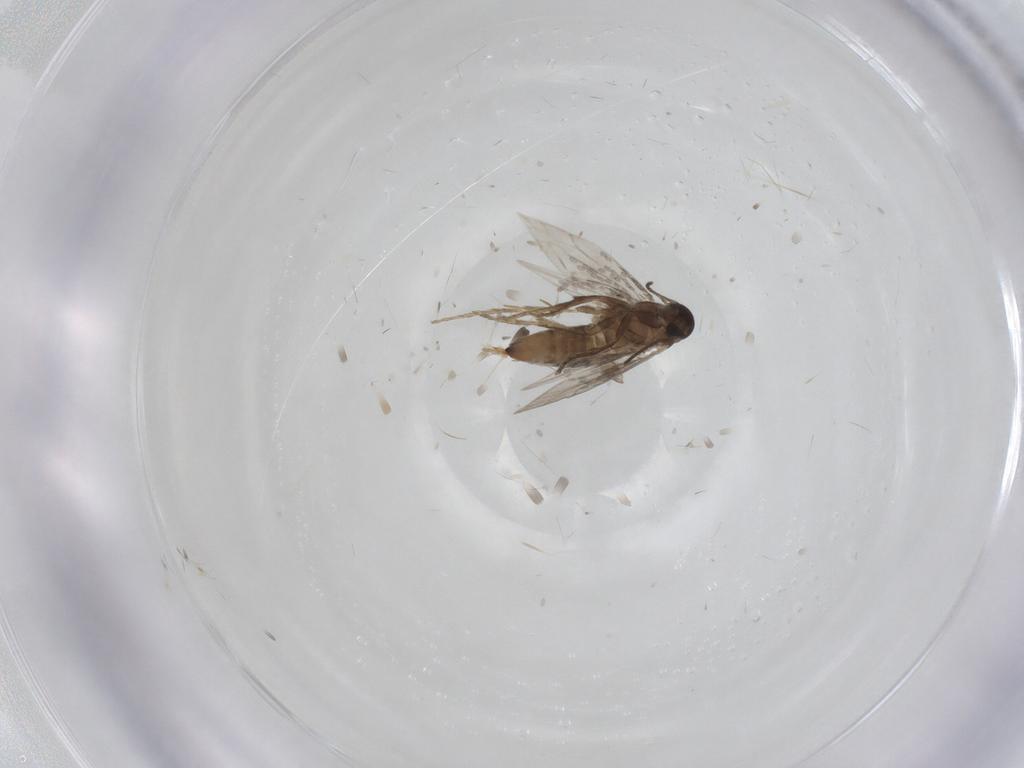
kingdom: Animalia
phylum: Arthropoda
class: Insecta
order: Lepidoptera
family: Heliozelidae
